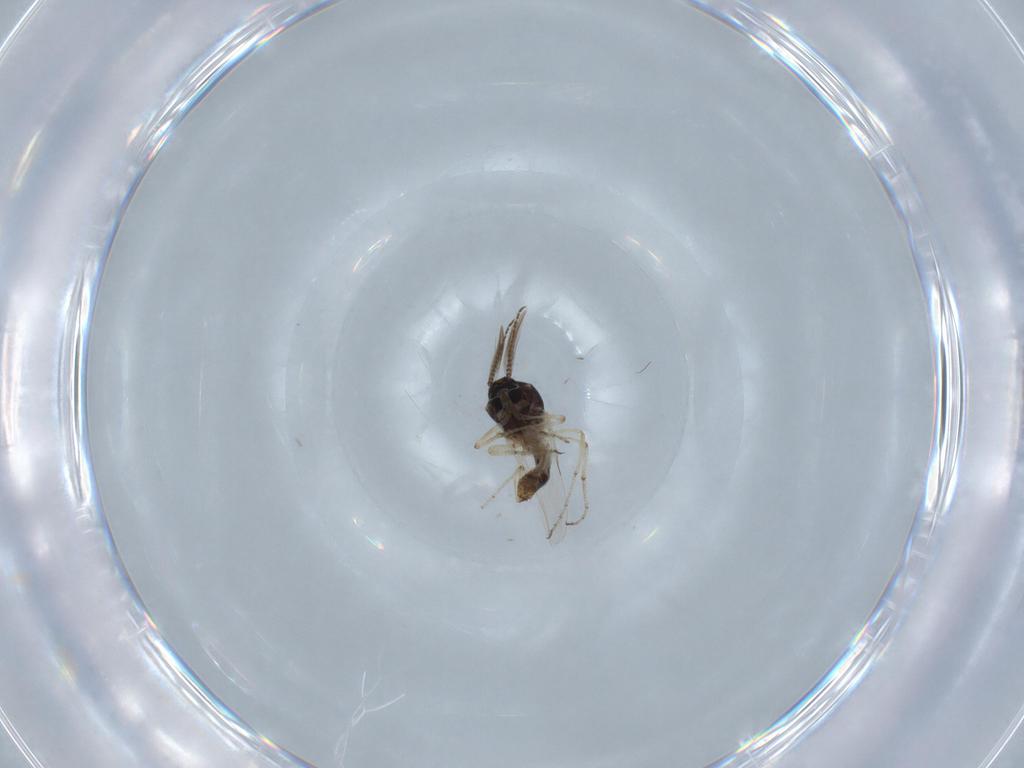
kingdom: Animalia
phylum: Arthropoda
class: Insecta
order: Diptera
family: Ceratopogonidae
